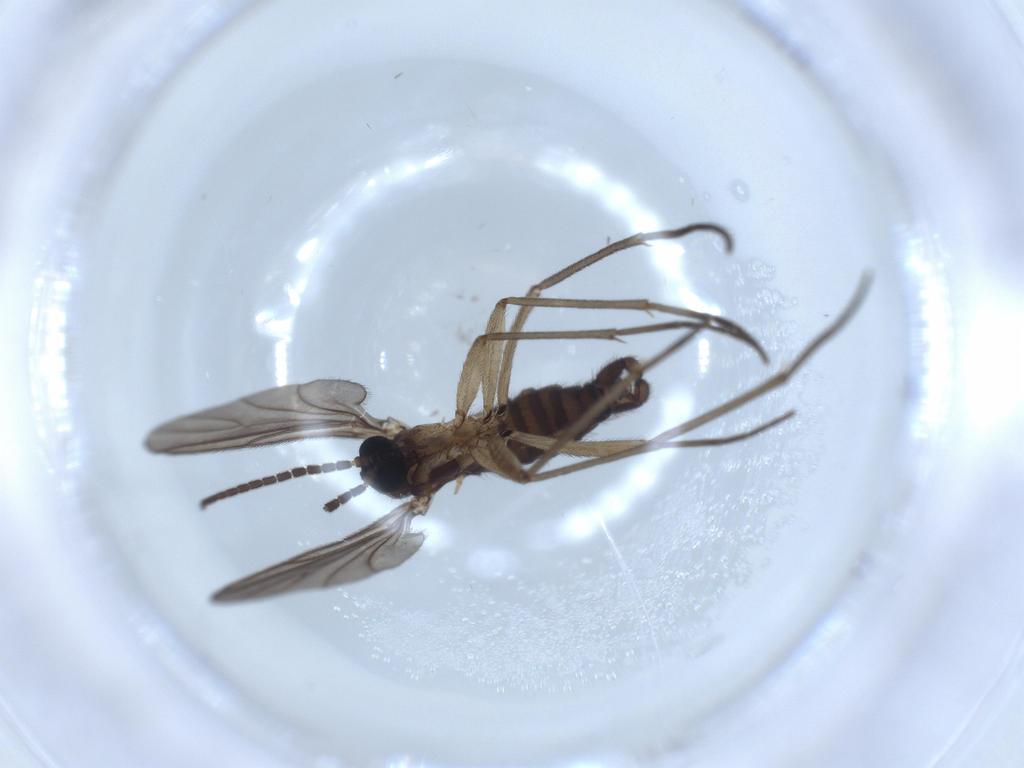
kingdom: Animalia
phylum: Arthropoda
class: Insecta
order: Diptera
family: Sciaridae
